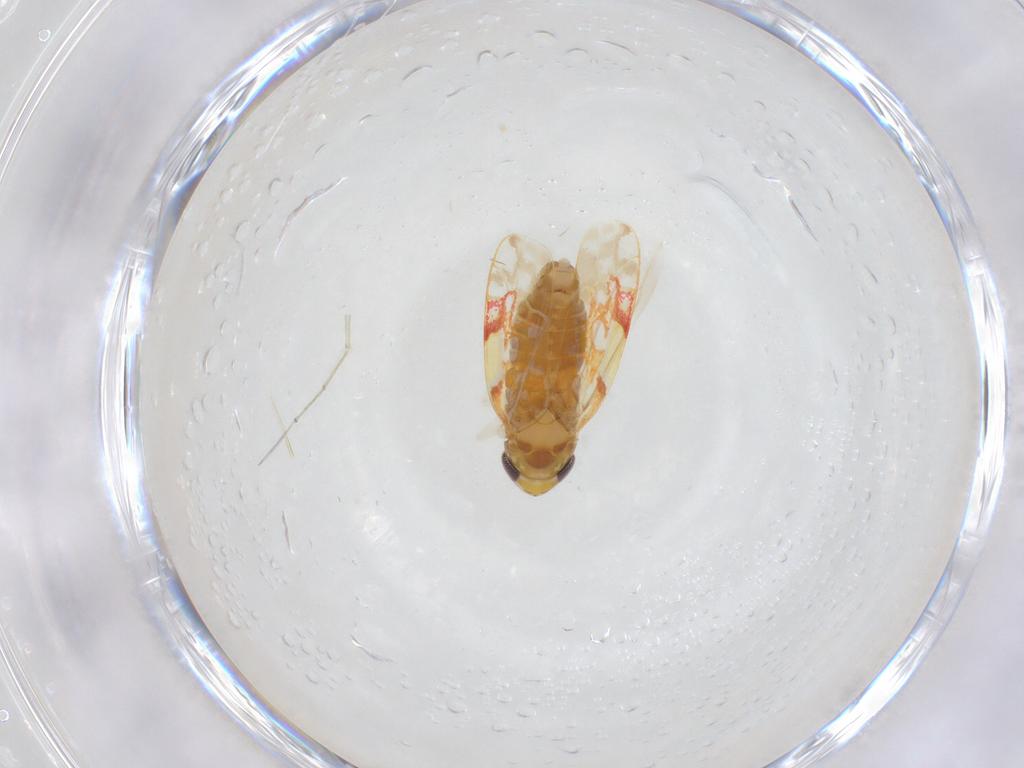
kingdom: Animalia
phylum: Arthropoda
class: Insecta
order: Hemiptera
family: Cicadellidae
